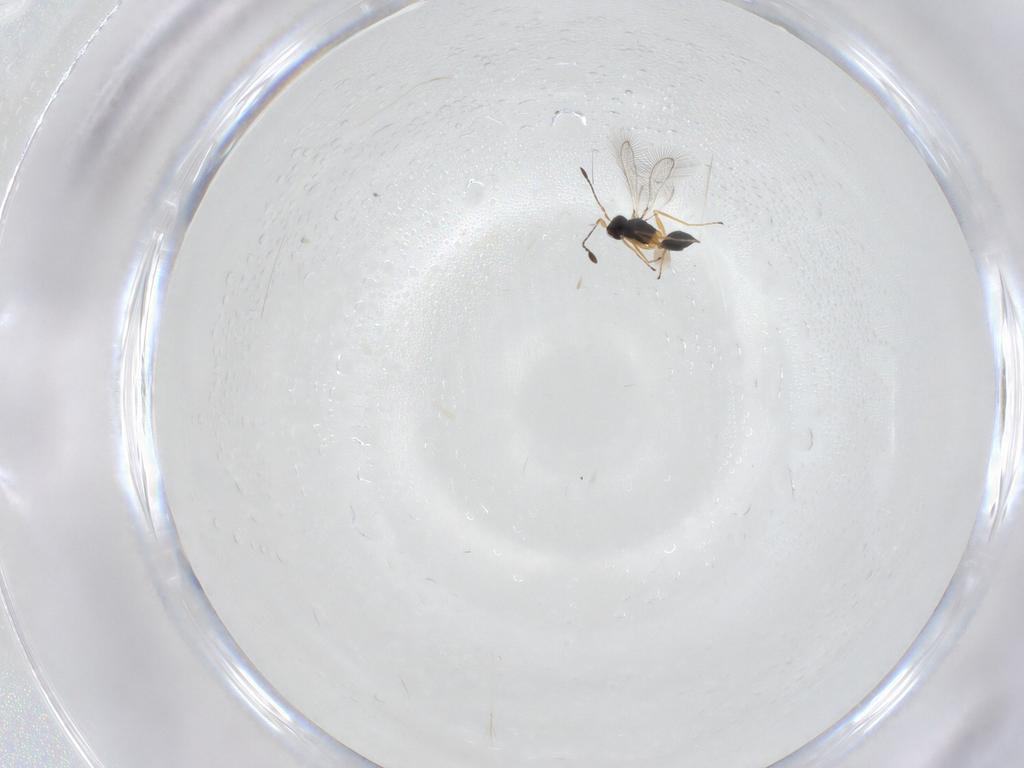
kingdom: Animalia
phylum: Arthropoda
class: Insecta
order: Hymenoptera
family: Mymaridae
